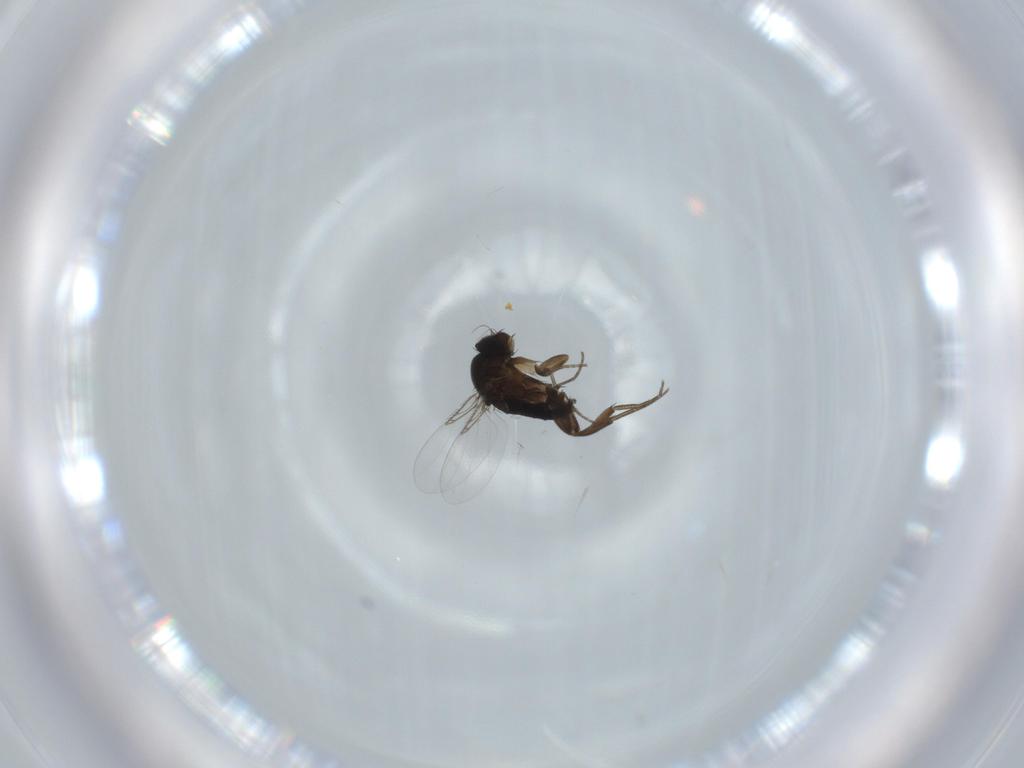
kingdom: Animalia
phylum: Arthropoda
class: Insecta
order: Diptera
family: Phoridae
